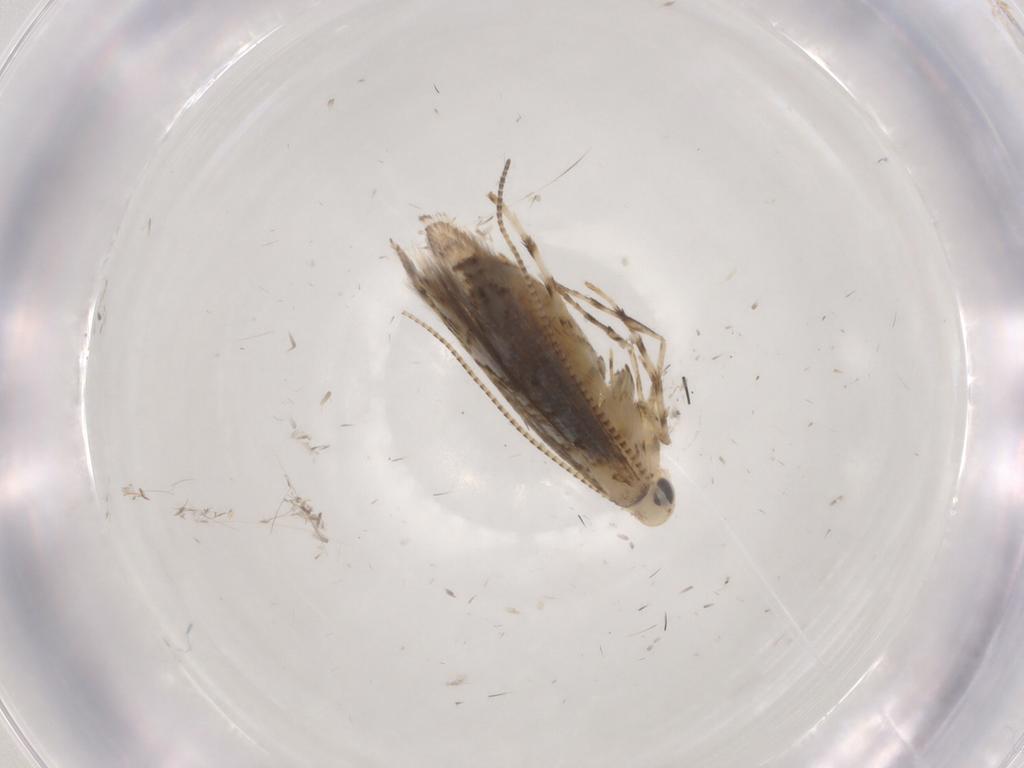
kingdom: Animalia
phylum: Arthropoda
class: Insecta
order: Lepidoptera
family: Gracillariidae
